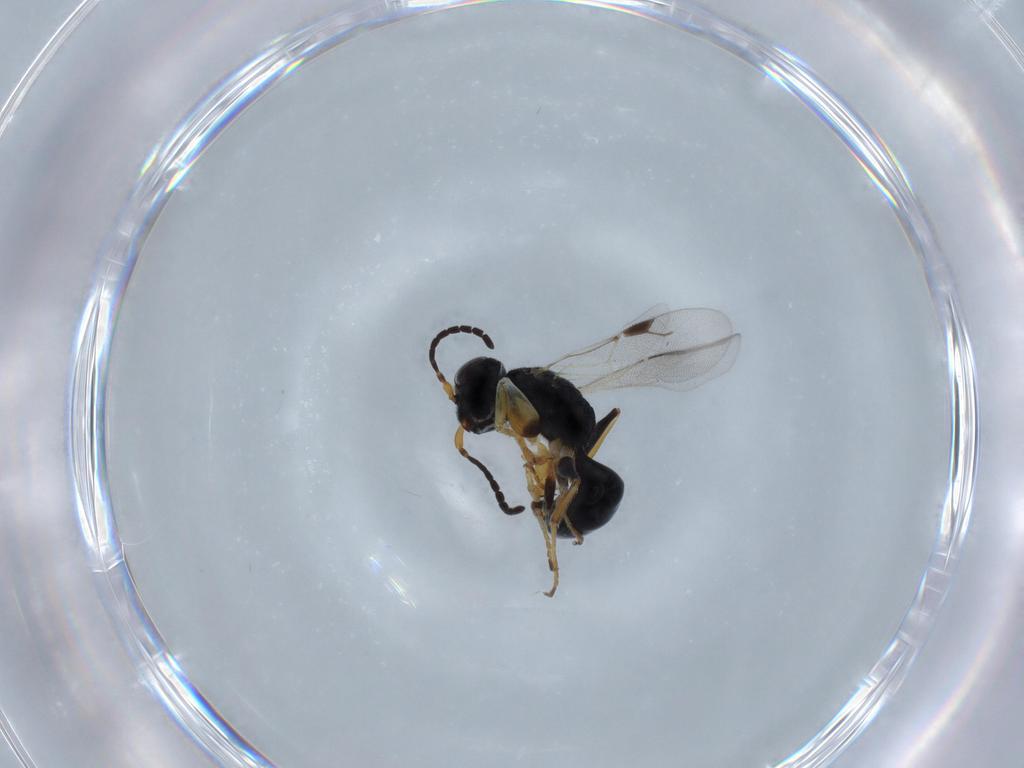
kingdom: Animalia
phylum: Arthropoda
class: Insecta
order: Hymenoptera
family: Dryinidae
